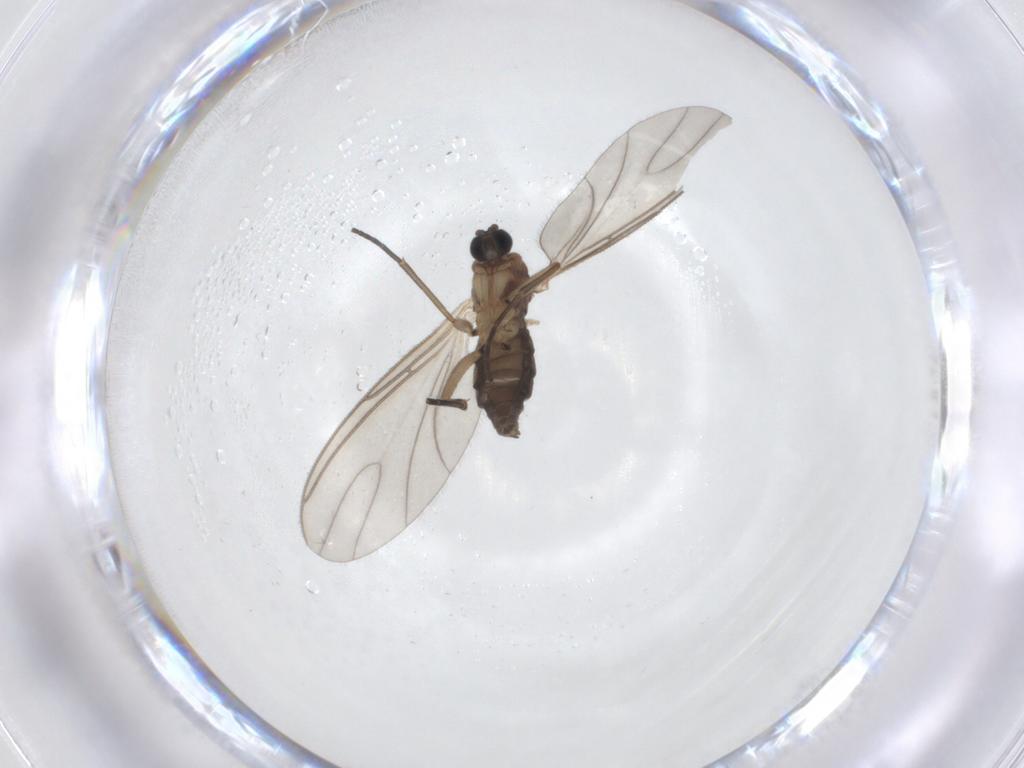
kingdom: Animalia
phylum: Arthropoda
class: Insecta
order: Diptera
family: Sciaridae
